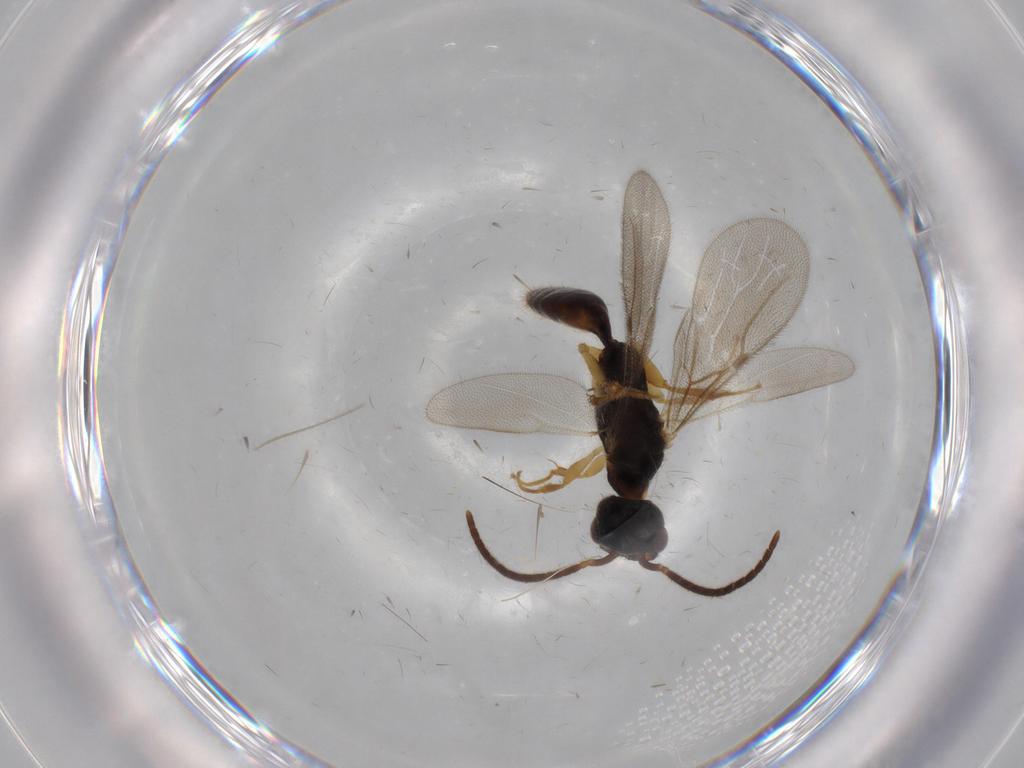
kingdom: Animalia
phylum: Arthropoda
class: Insecta
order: Hymenoptera
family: Bethylidae
